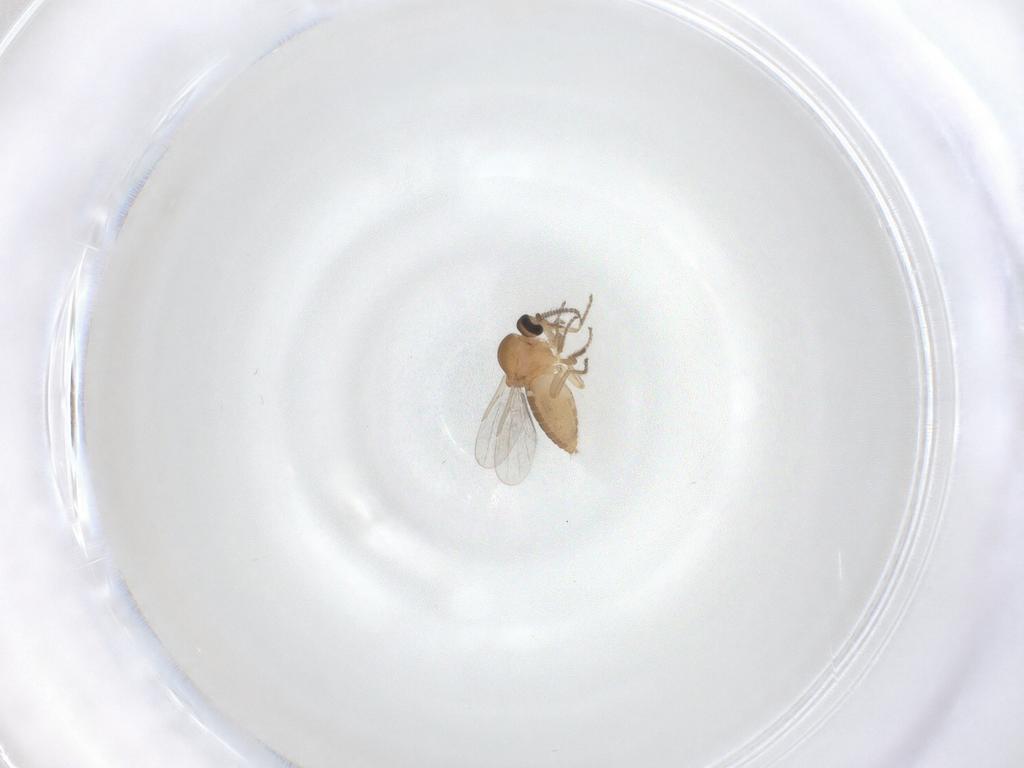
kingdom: Animalia
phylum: Arthropoda
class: Insecta
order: Diptera
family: Ceratopogonidae
